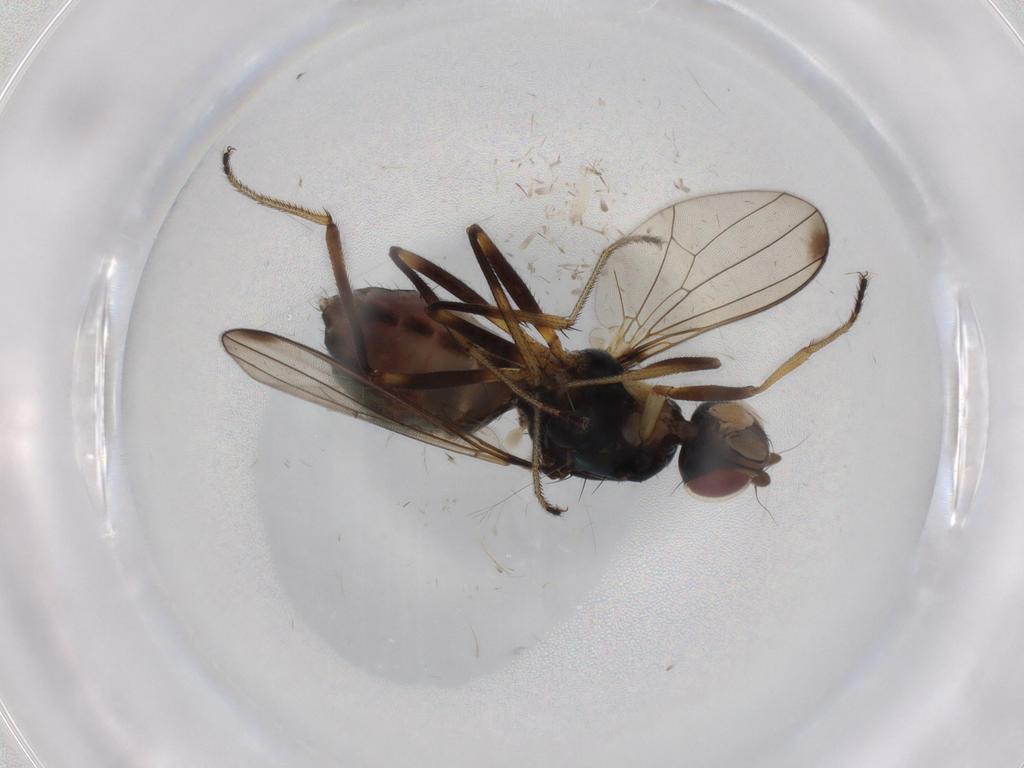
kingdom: Animalia
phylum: Arthropoda
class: Insecta
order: Diptera
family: Sepsidae
